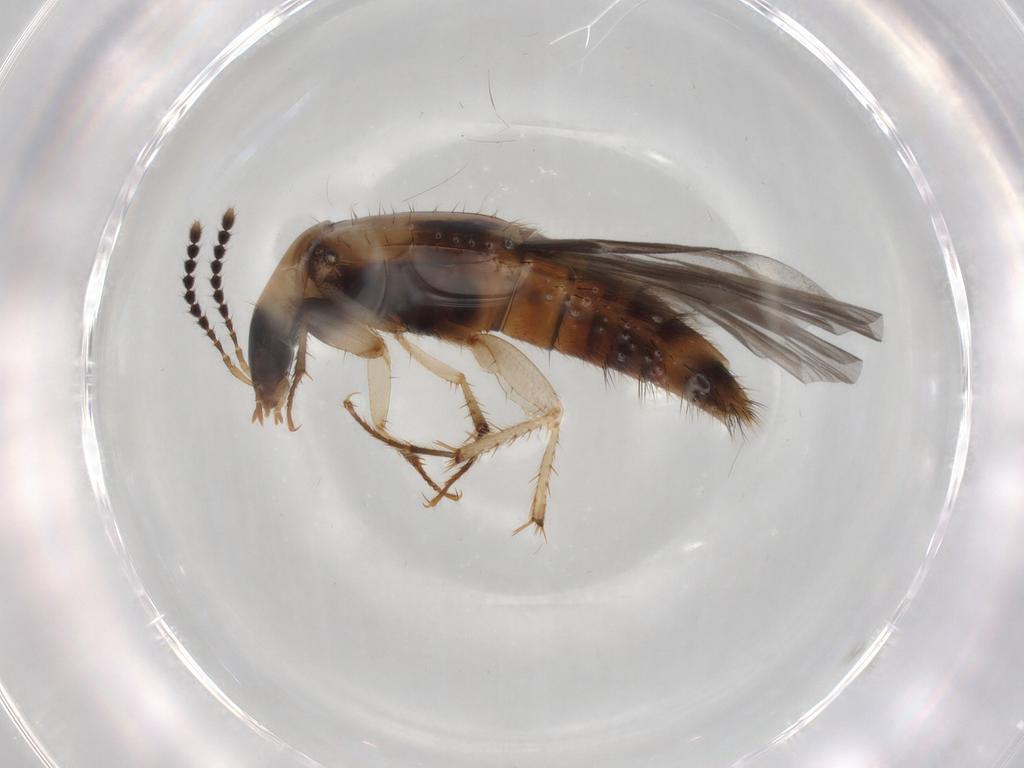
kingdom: Animalia
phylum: Arthropoda
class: Insecta
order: Coleoptera
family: Staphylinidae
